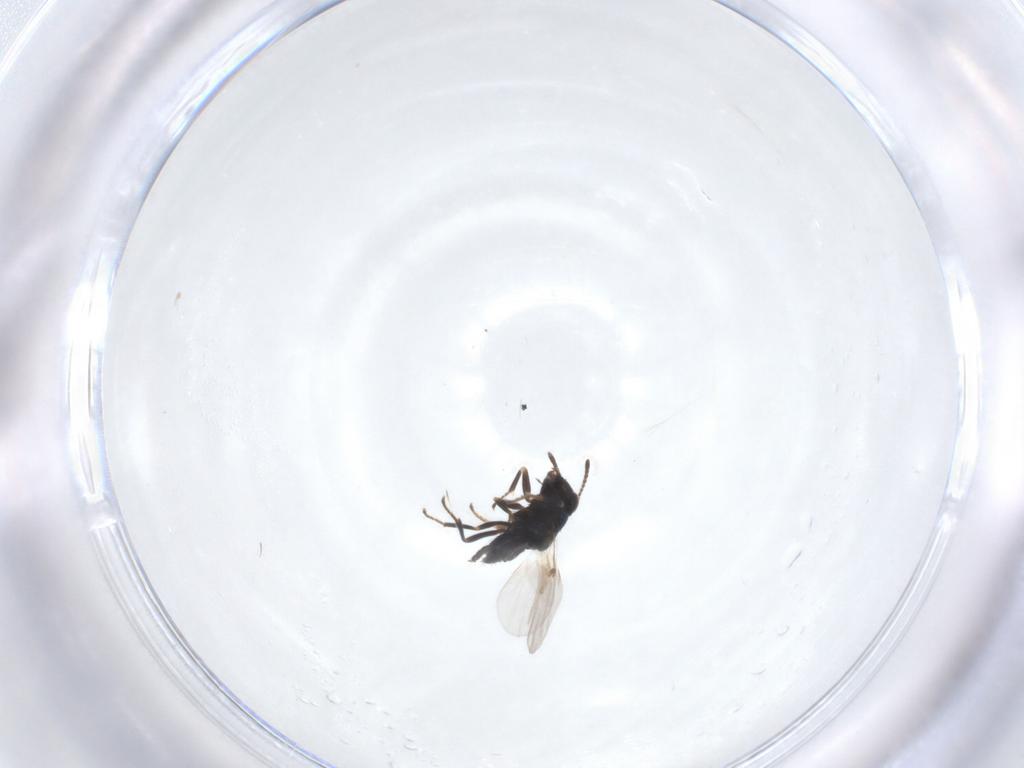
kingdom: Animalia
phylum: Arthropoda
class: Insecta
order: Hymenoptera
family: Encyrtidae
